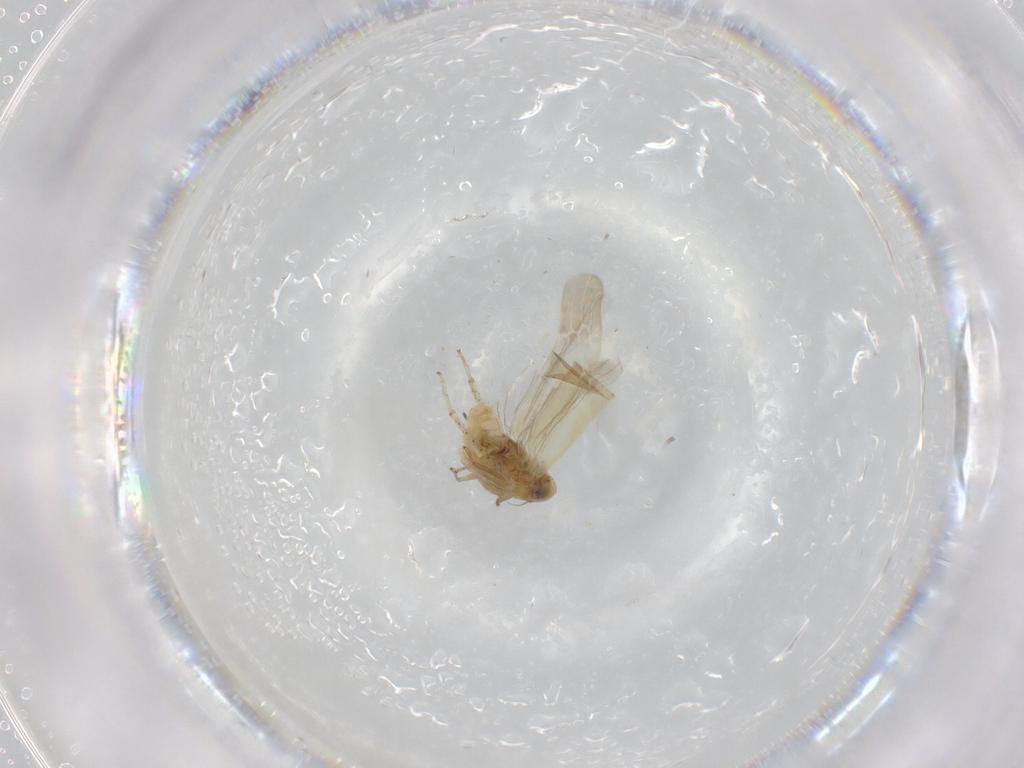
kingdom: Animalia
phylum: Arthropoda
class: Insecta
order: Hemiptera
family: Cicadellidae
